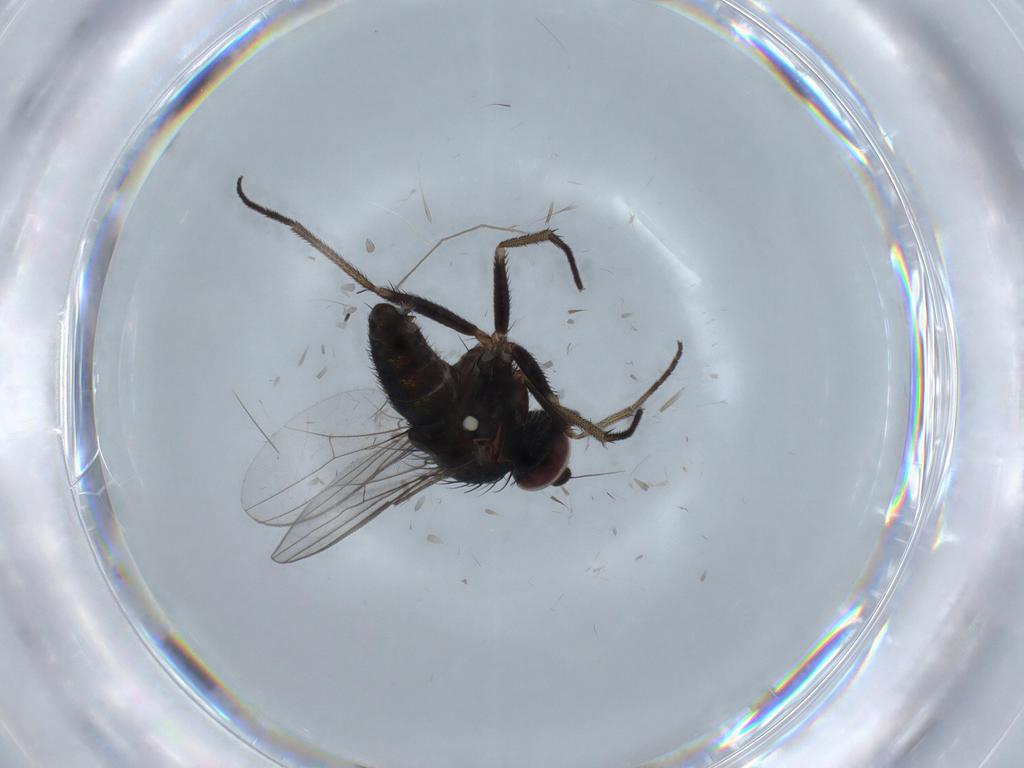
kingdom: Animalia
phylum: Arthropoda
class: Insecta
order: Diptera
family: Dolichopodidae
